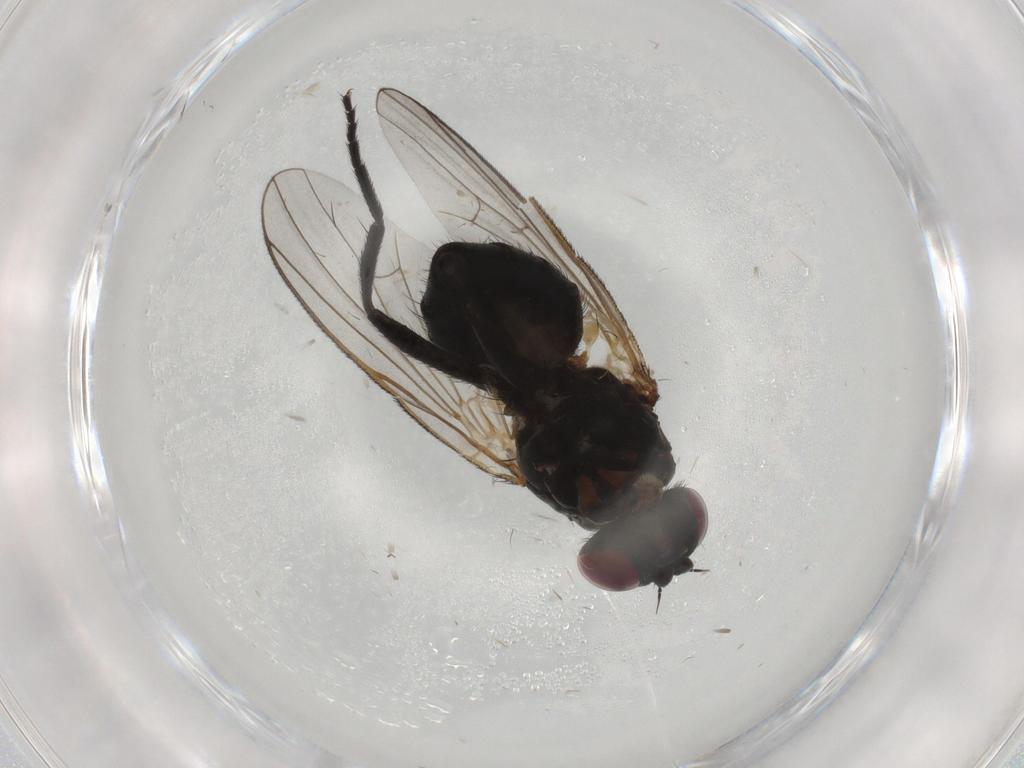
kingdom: Animalia
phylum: Arthropoda
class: Insecta
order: Diptera
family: Fannia
